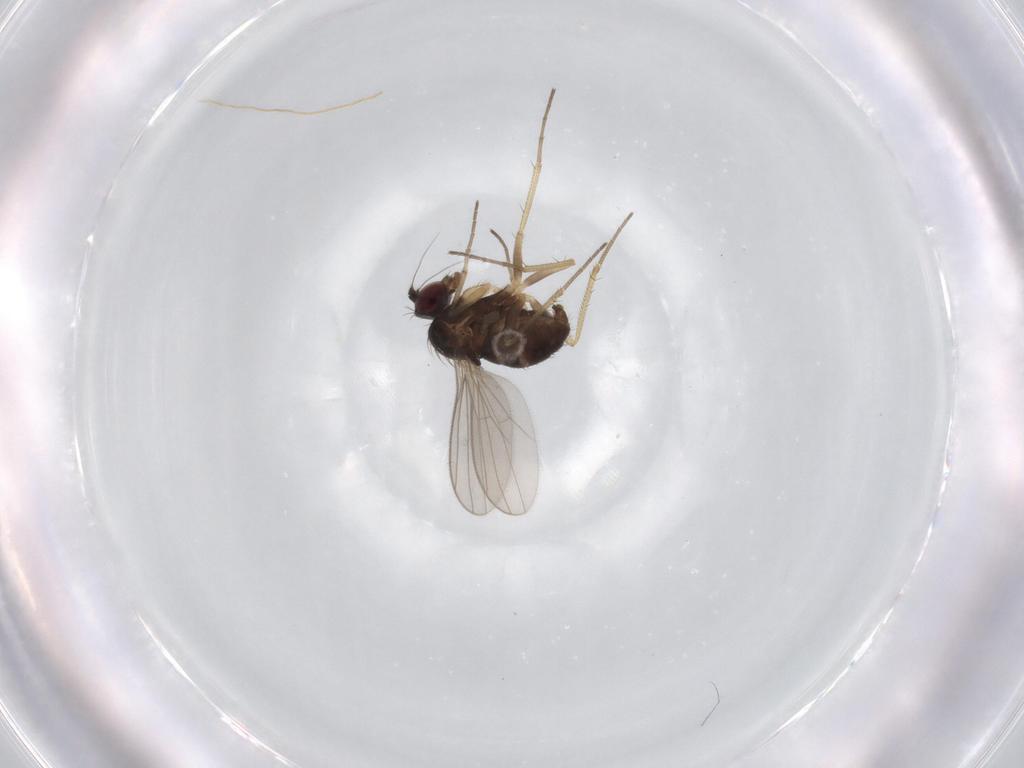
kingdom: Animalia
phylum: Arthropoda
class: Insecta
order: Diptera
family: Dolichopodidae
